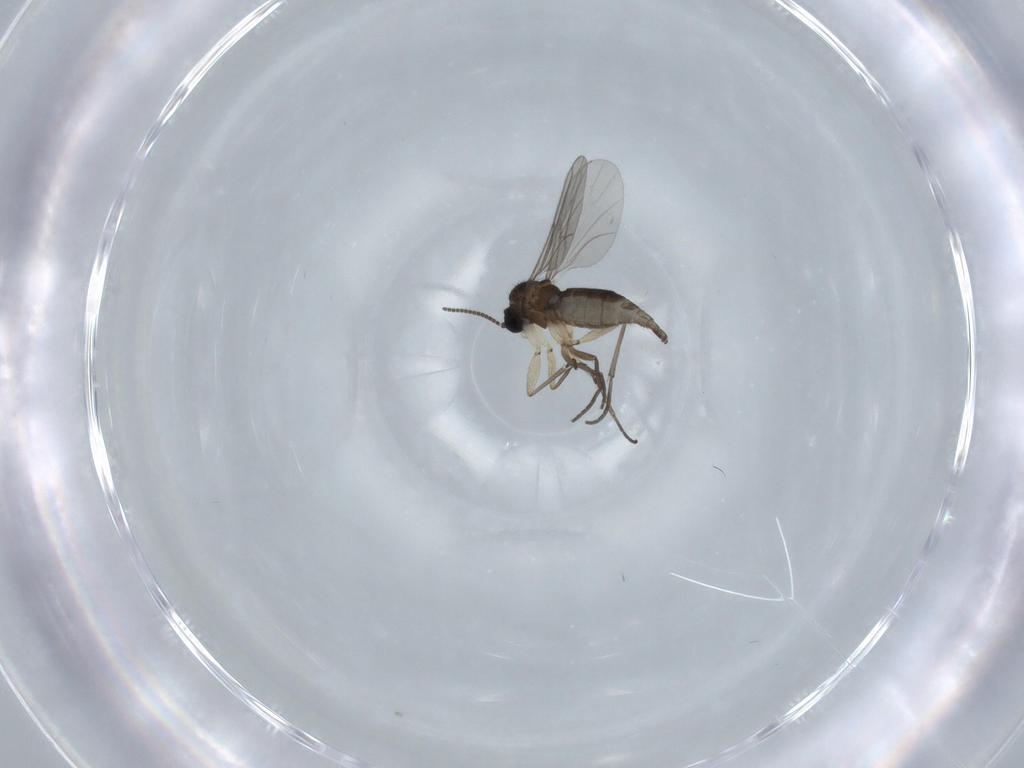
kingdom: Animalia
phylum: Arthropoda
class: Insecta
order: Diptera
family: Sciaridae
